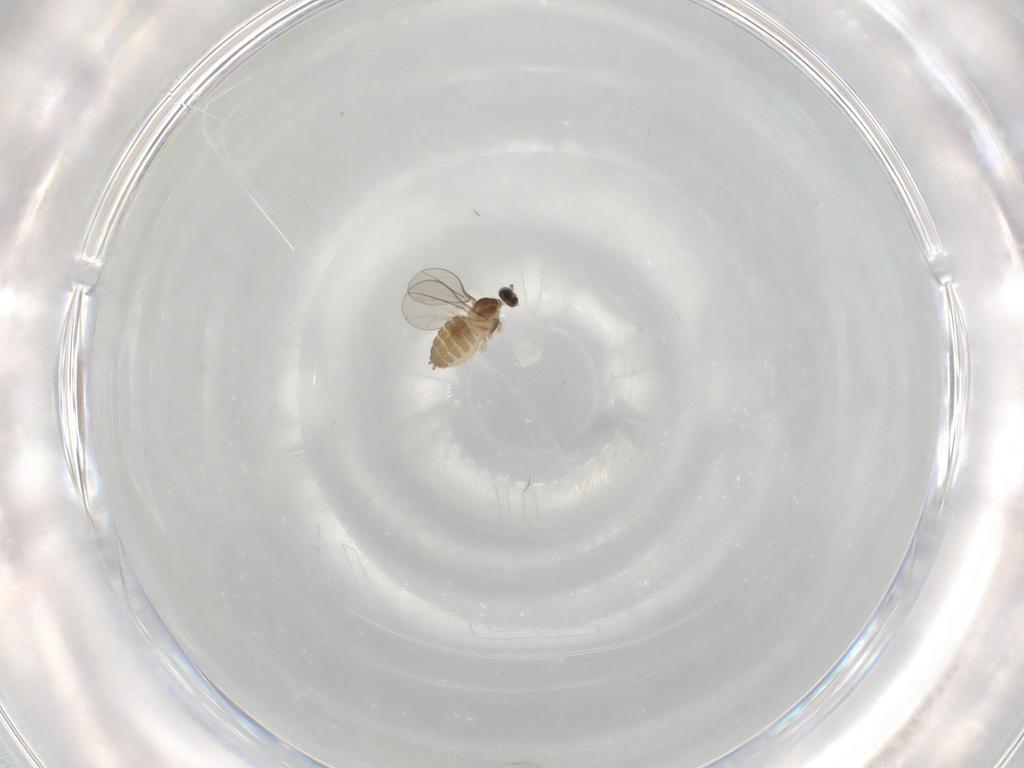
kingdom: Animalia
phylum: Arthropoda
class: Insecta
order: Diptera
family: Cecidomyiidae
